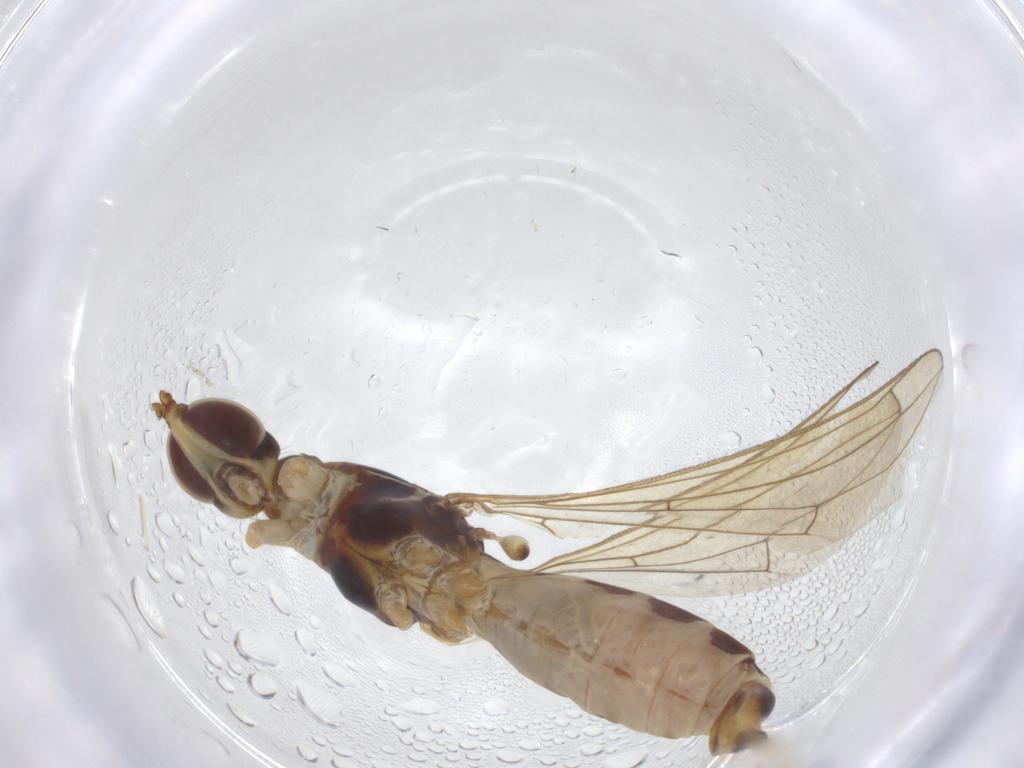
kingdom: Animalia
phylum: Arthropoda
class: Insecta
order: Diptera
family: Micropezidae
